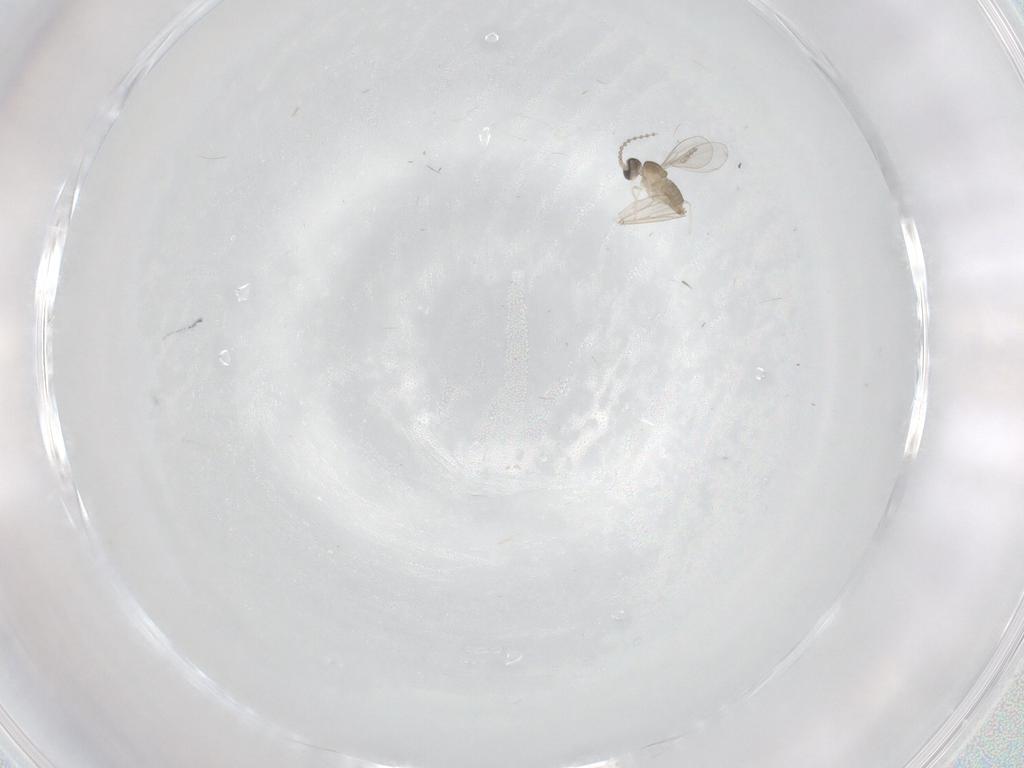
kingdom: Animalia
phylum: Arthropoda
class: Insecta
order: Diptera
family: Cecidomyiidae
